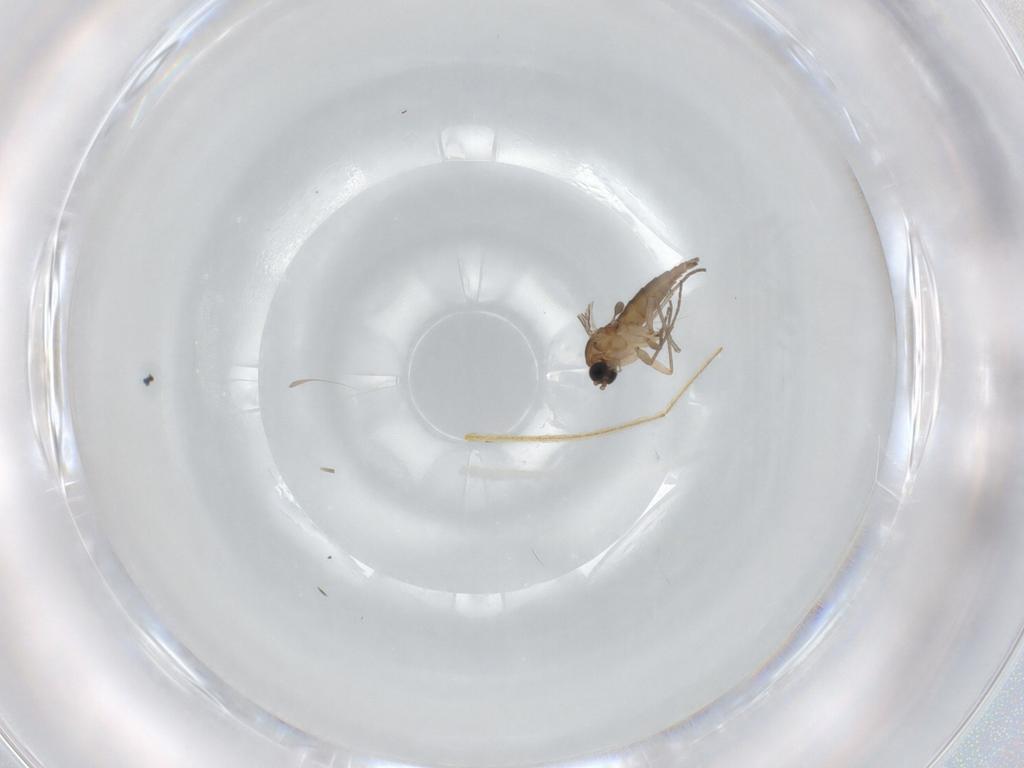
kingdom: Animalia
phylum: Arthropoda
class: Insecta
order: Diptera
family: Sciaridae
